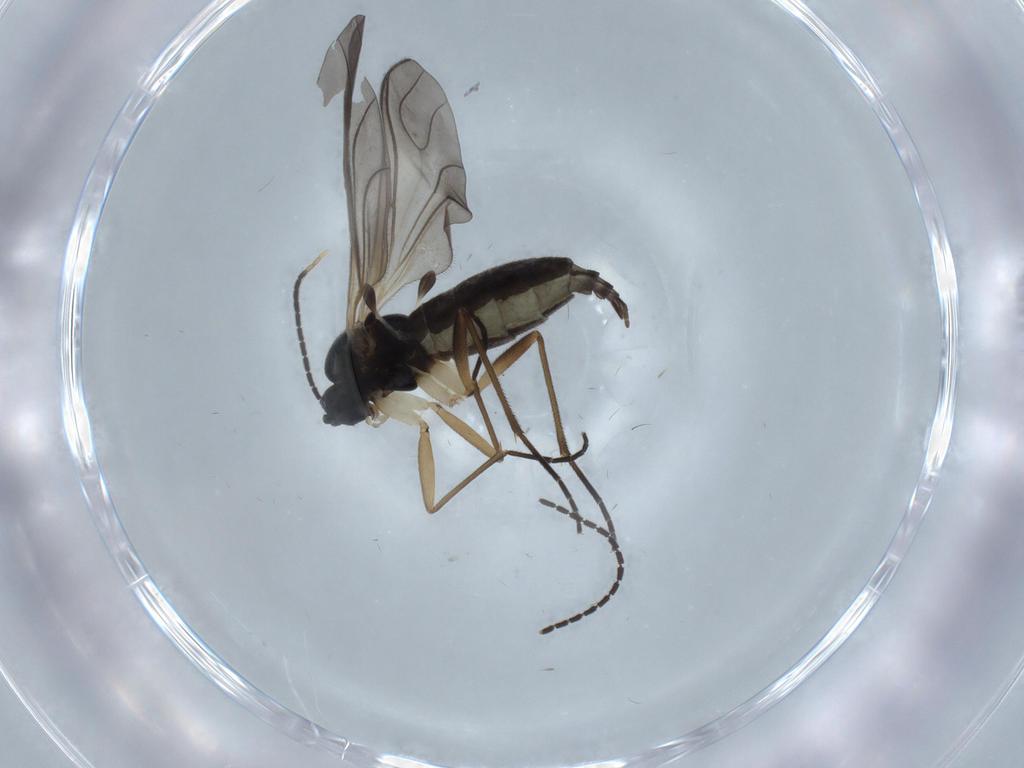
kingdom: Animalia
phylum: Arthropoda
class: Insecta
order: Diptera
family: Sciaridae
